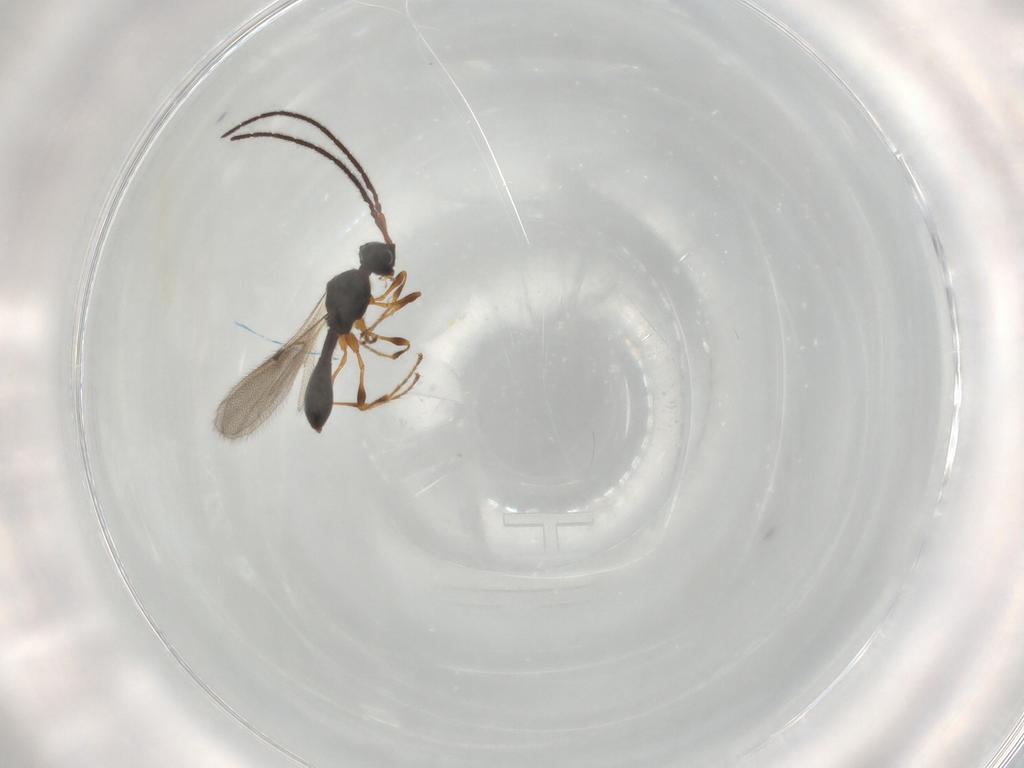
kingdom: Animalia
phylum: Arthropoda
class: Insecta
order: Hymenoptera
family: Diapriidae
